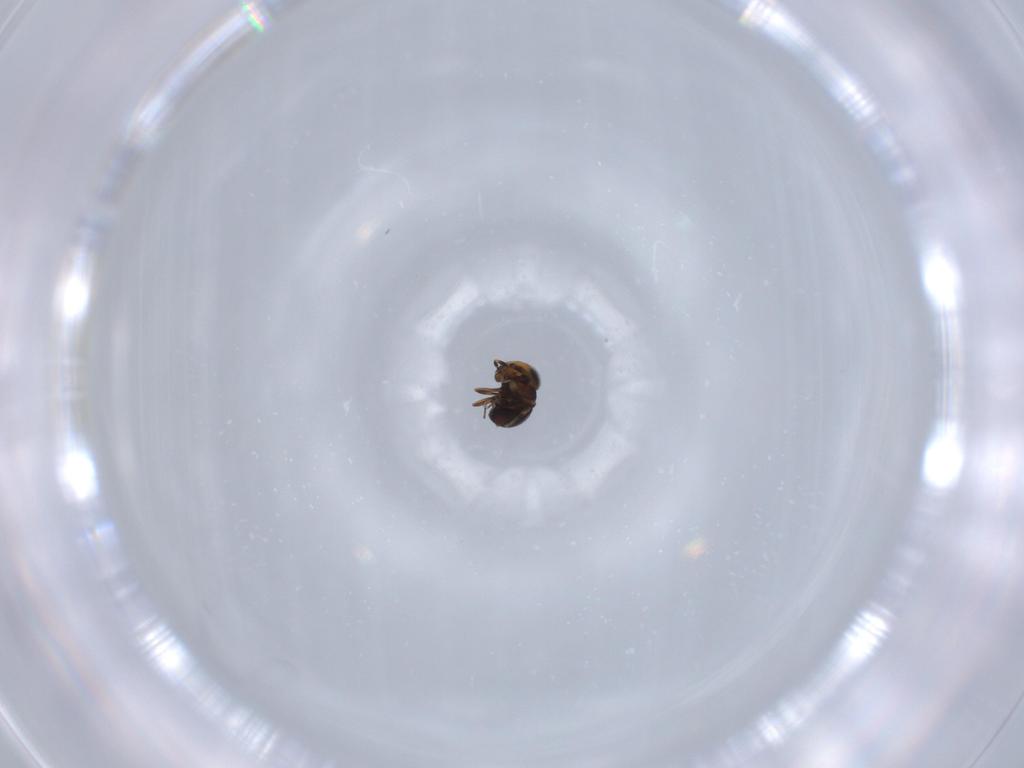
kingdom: Animalia
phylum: Arthropoda
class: Insecta
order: Hymenoptera
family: Scelionidae
